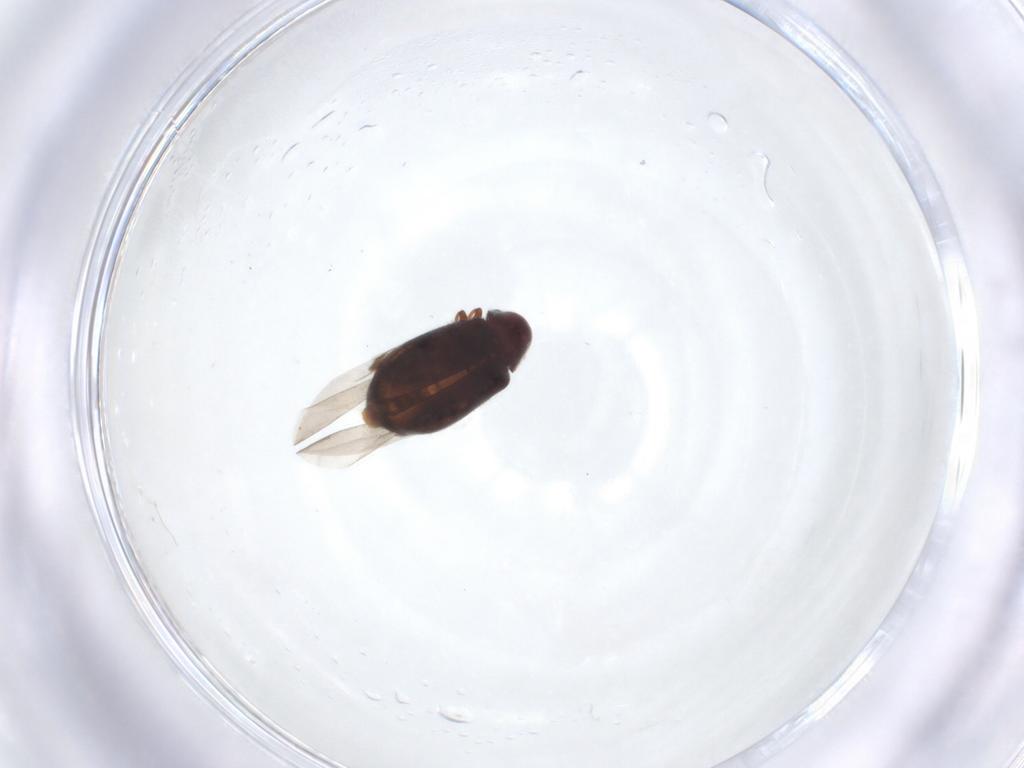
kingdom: Animalia
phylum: Arthropoda
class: Insecta
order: Coleoptera
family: Ptinidae
